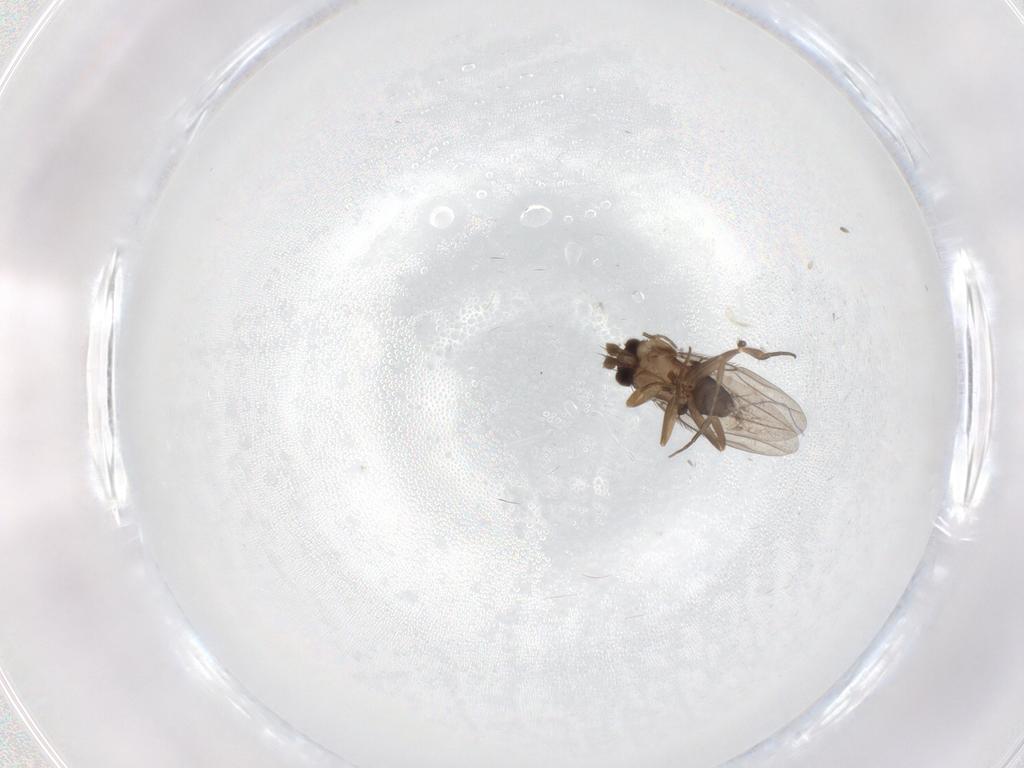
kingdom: Animalia
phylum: Arthropoda
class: Insecta
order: Diptera
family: Phoridae
